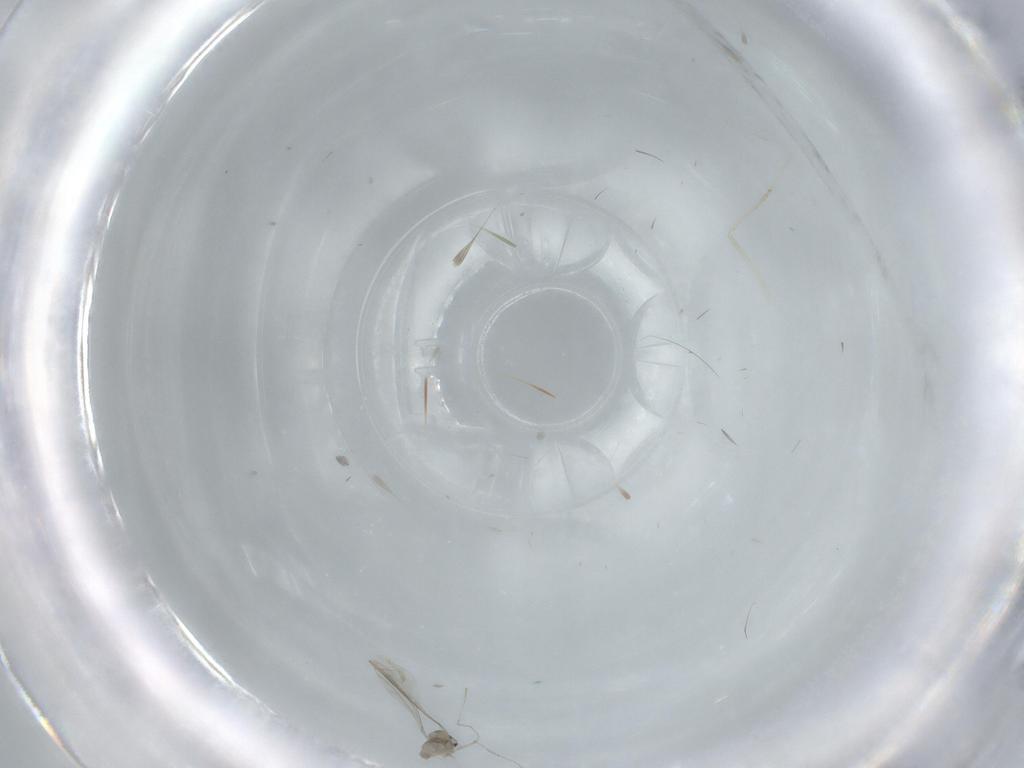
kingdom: Animalia
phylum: Arthropoda
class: Insecta
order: Diptera
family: Cecidomyiidae
